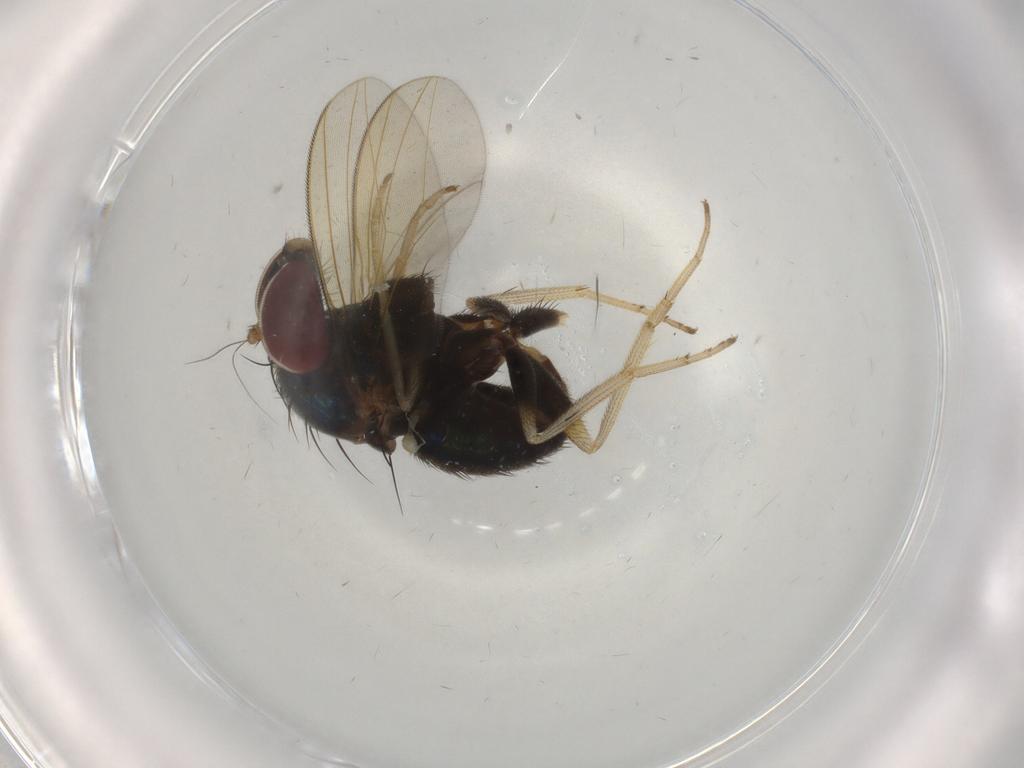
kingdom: Animalia
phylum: Arthropoda
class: Insecta
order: Diptera
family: Dolichopodidae
